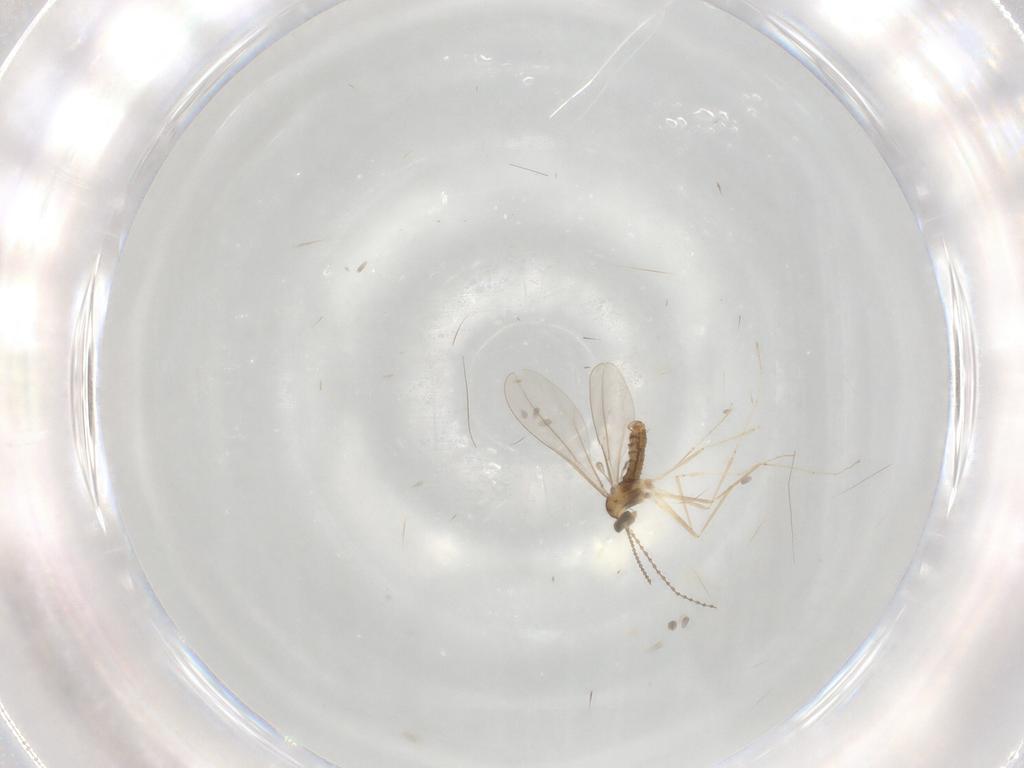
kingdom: Animalia
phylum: Arthropoda
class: Insecta
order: Diptera
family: Cecidomyiidae
